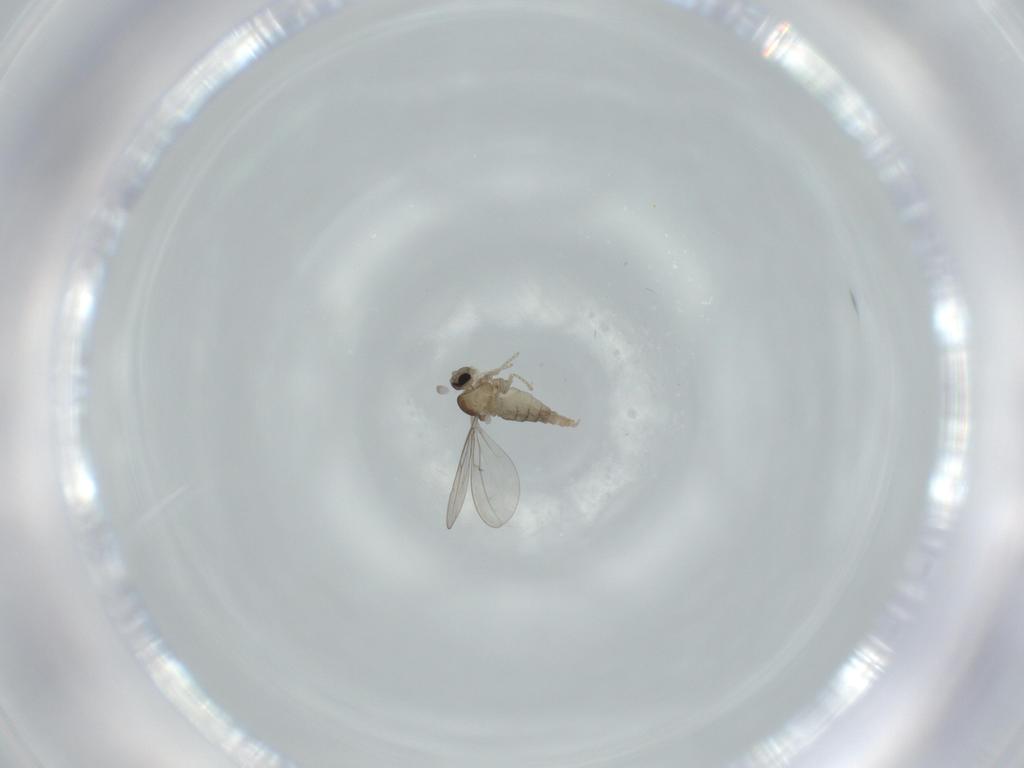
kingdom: Animalia
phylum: Arthropoda
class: Insecta
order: Diptera
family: Cecidomyiidae
